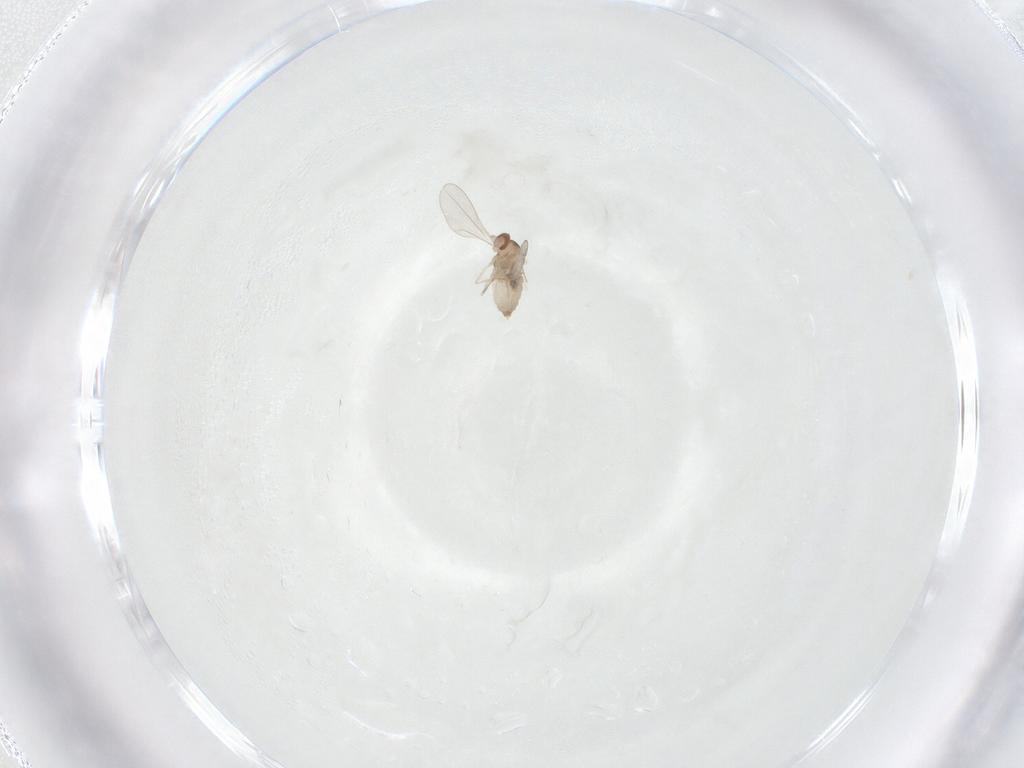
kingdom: Animalia
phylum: Arthropoda
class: Insecta
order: Diptera
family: Cecidomyiidae
